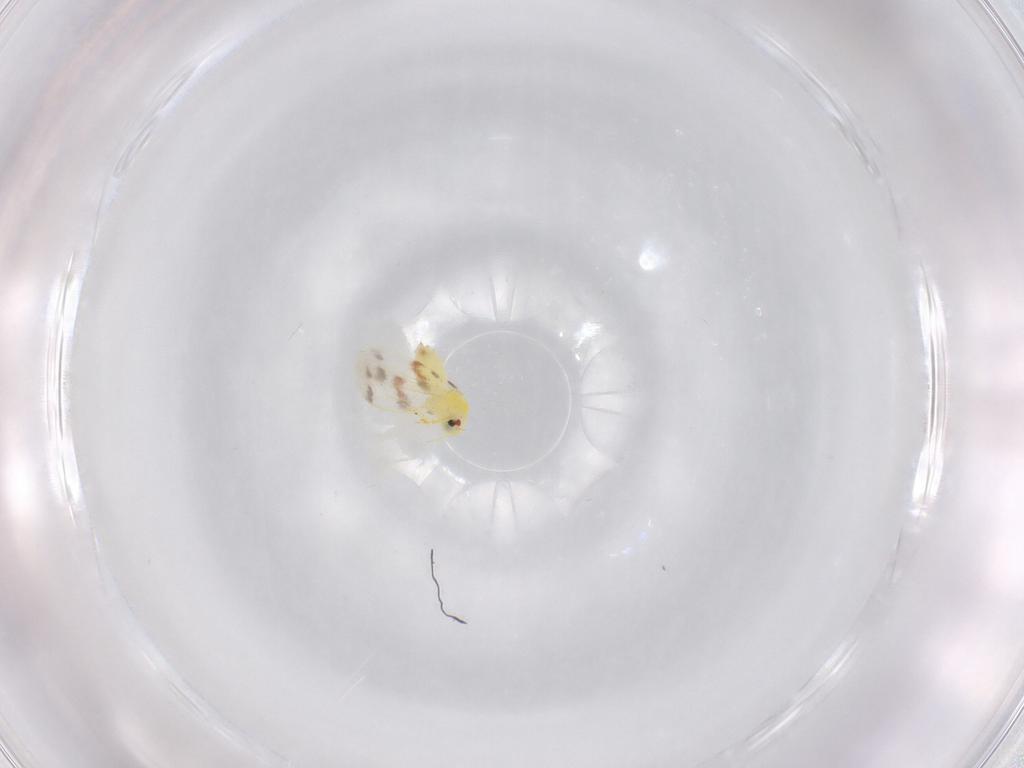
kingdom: Animalia
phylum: Arthropoda
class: Insecta
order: Hemiptera
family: Aleyrodidae
